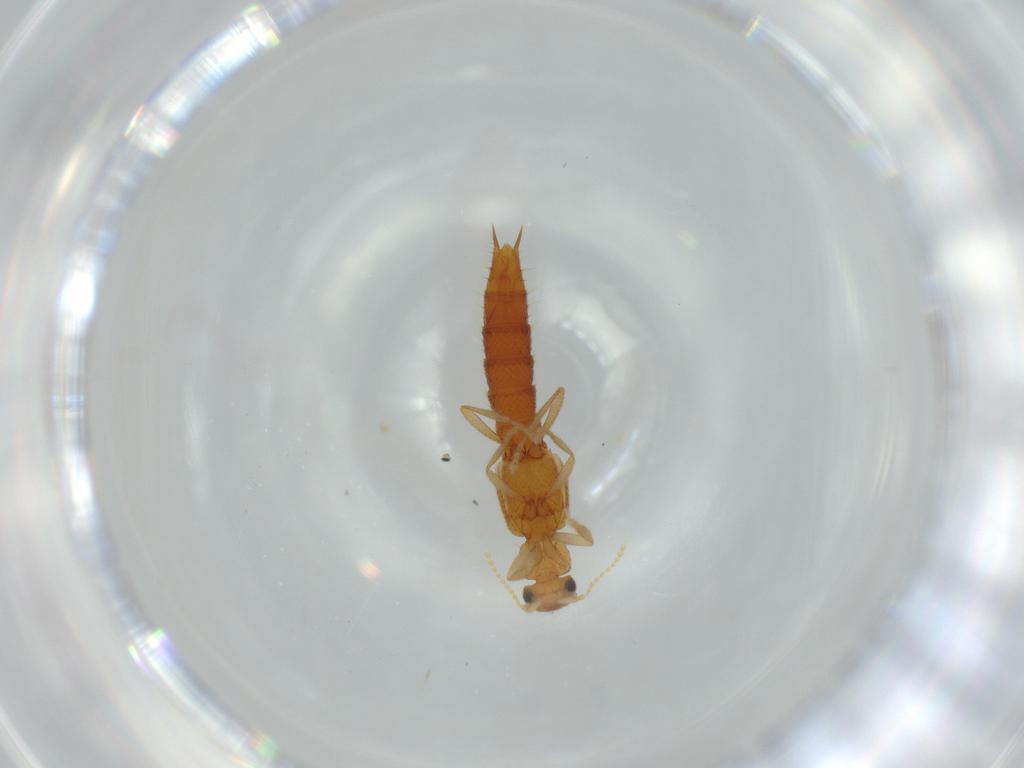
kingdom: Animalia
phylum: Arthropoda
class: Insecta
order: Coleoptera
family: Staphylinidae
